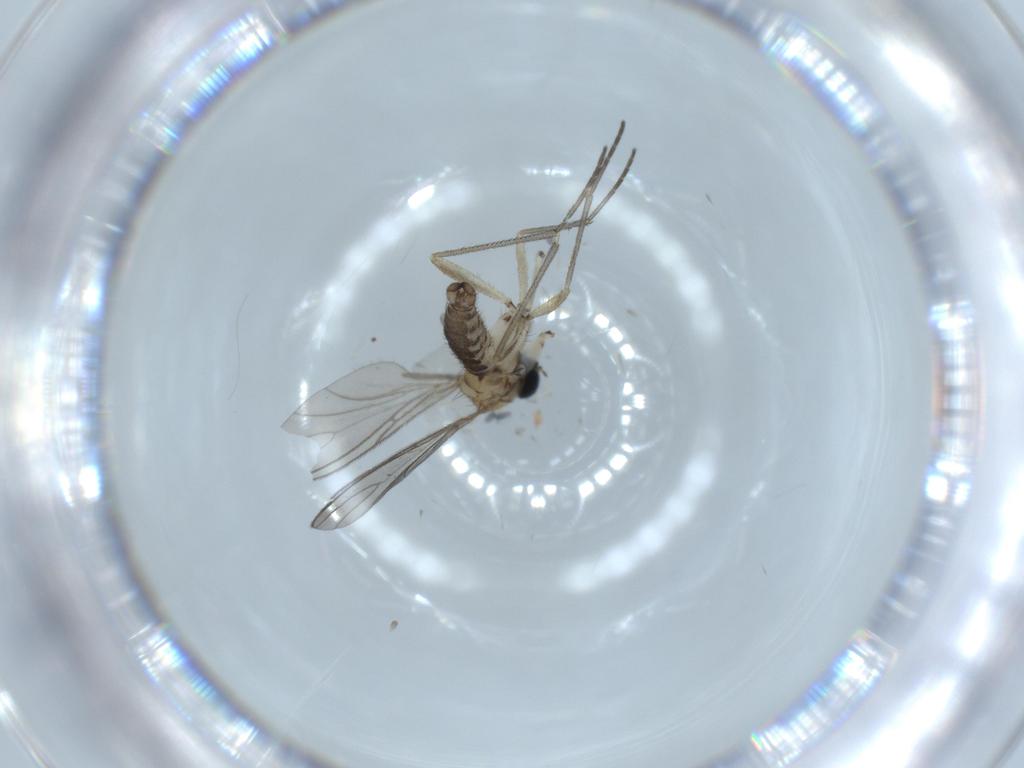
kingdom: Animalia
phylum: Arthropoda
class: Insecta
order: Diptera
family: Sciaridae
